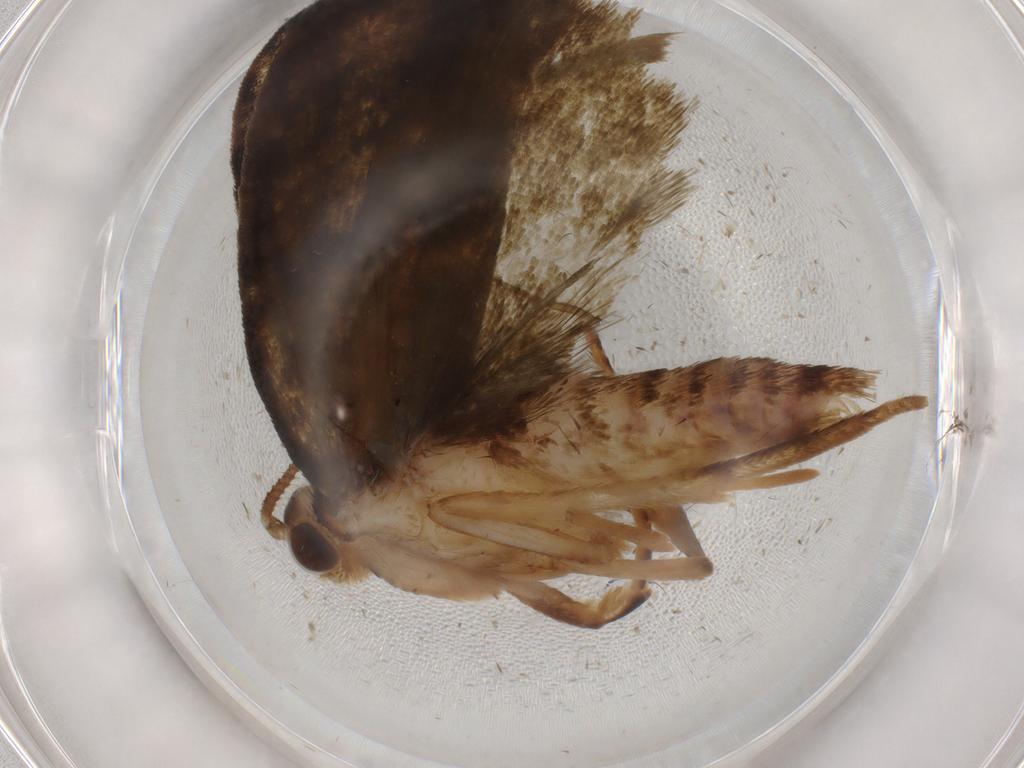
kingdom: Animalia
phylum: Arthropoda
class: Insecta
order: Lepidoptera
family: Geometridae
